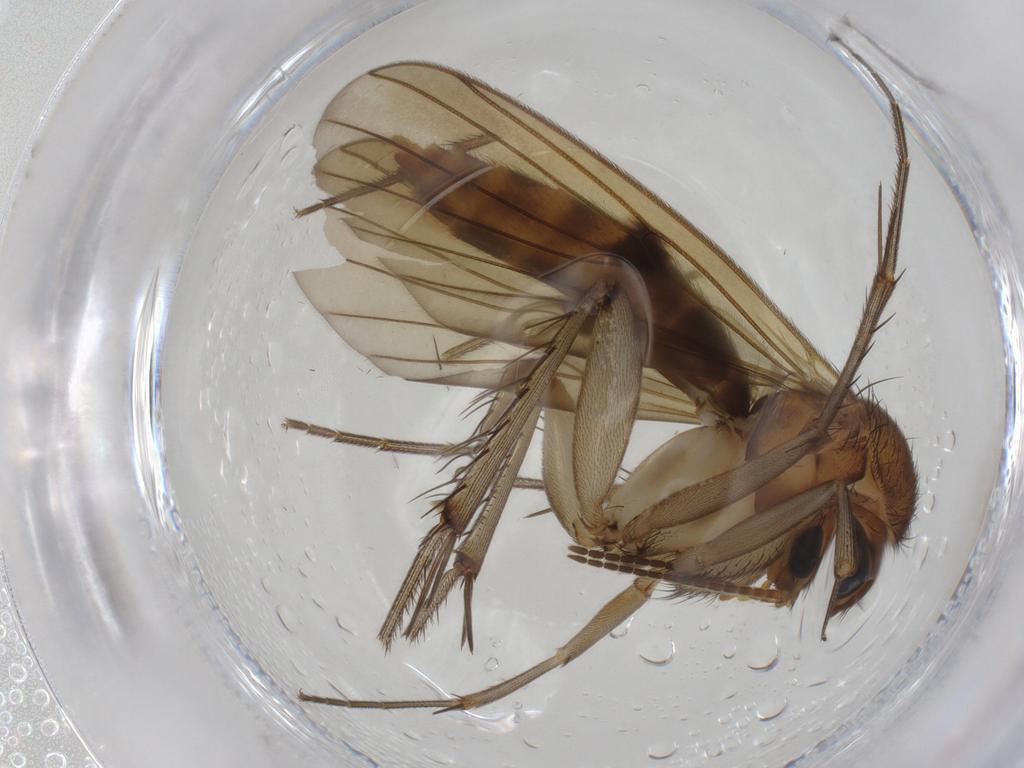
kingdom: Animalia
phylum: Arthropoda
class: Insecta
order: Diptera
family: Mycetophilidae
